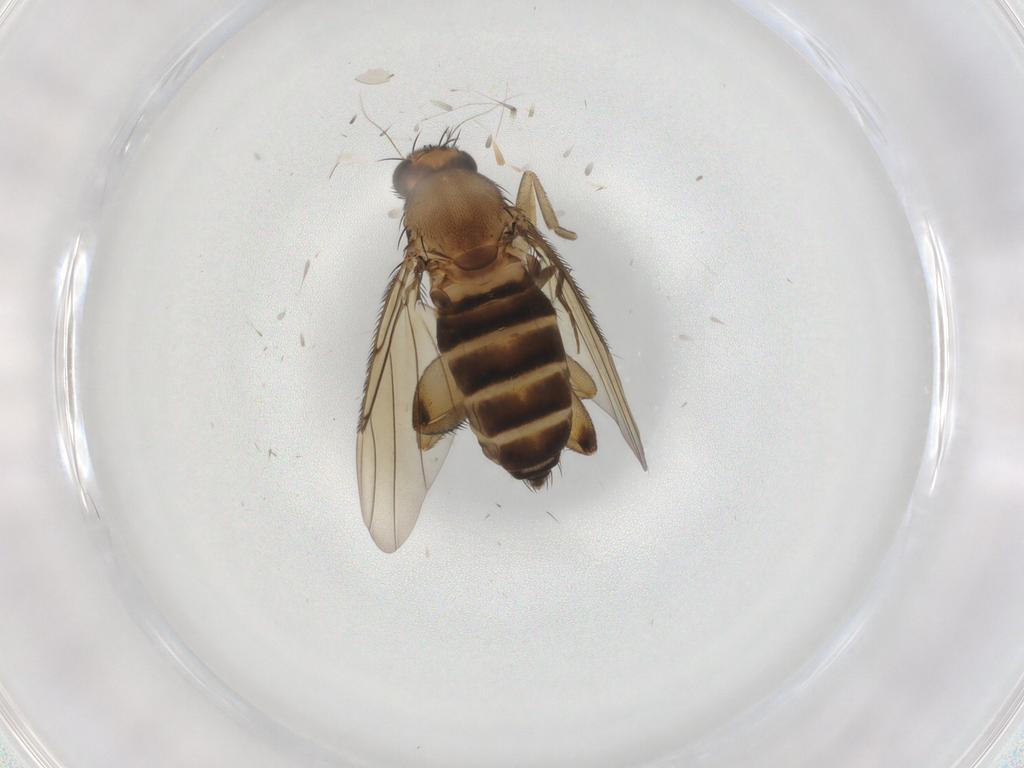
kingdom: Animalia
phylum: Arthropoda
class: Insecta
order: Diptera
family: Phoridae
